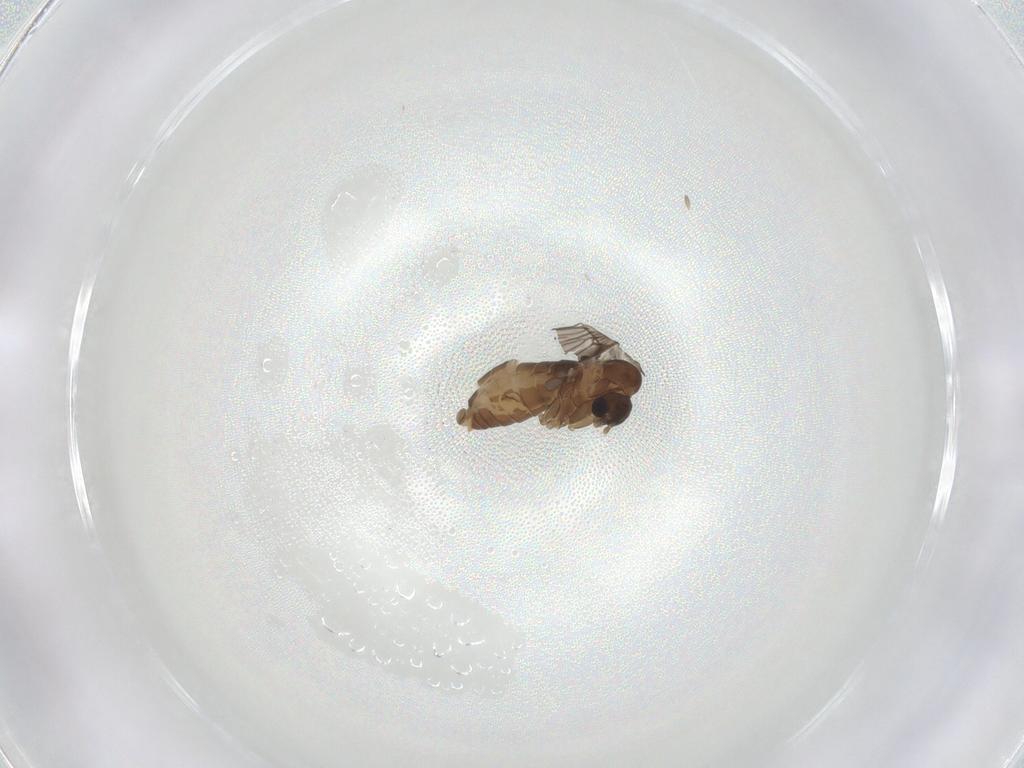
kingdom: Animalia
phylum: Arthropoda
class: Insecta
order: Diptera
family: Psychodidae
